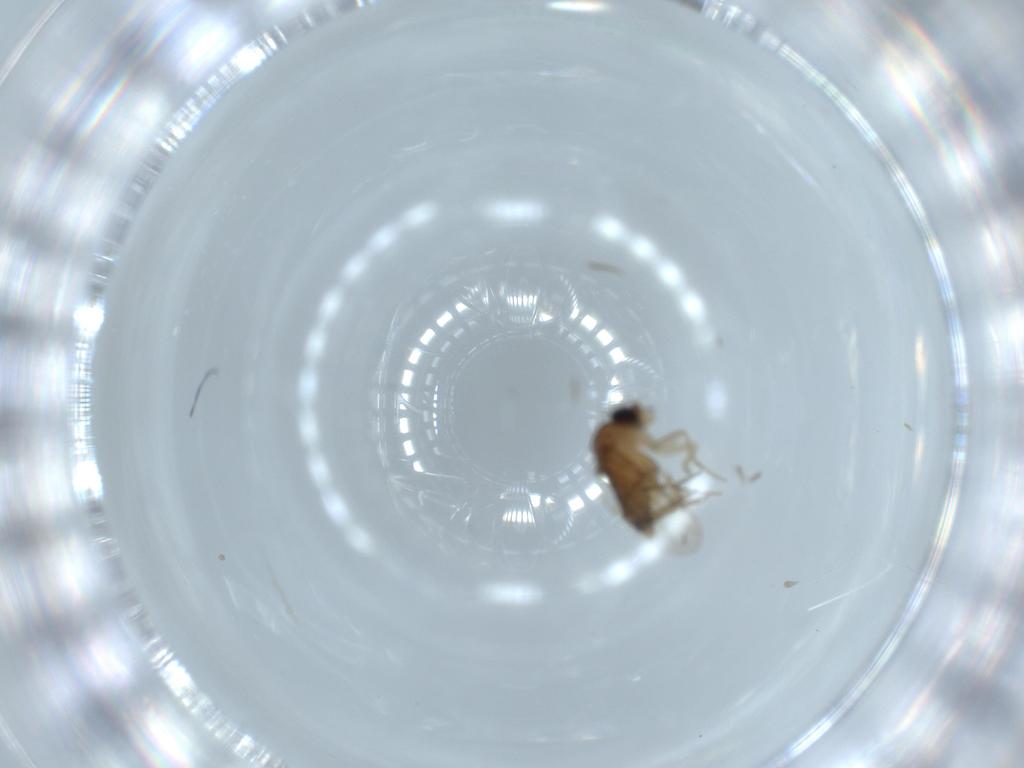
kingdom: Animalia
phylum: Arthropoda
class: Insecta
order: Diptera
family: Phoridae
